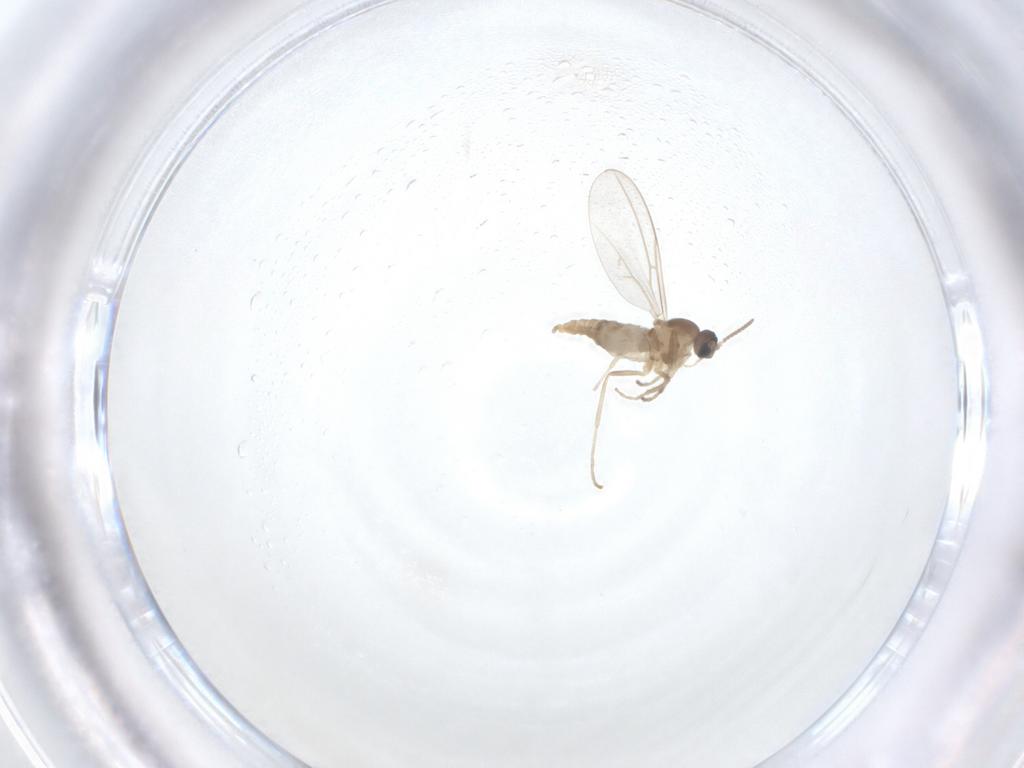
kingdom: Animalia
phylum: Arthropoda
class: Insecta
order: Diptera
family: Cecidomyiidae
